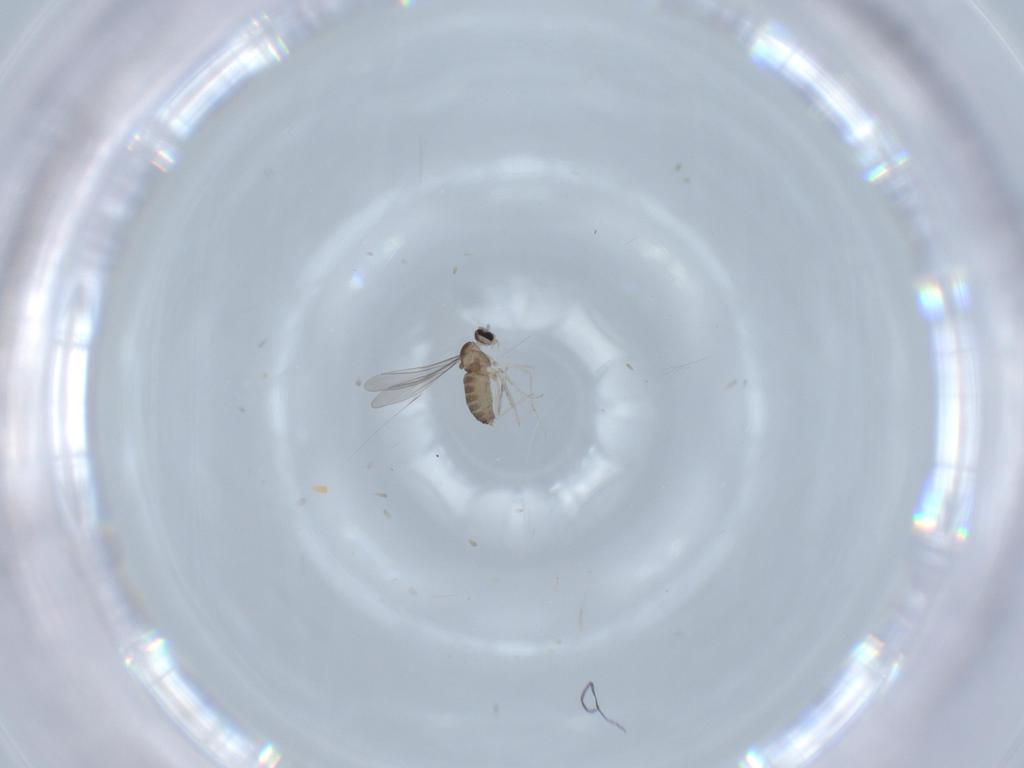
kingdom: Animalia
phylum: Arthropoda
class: Insecta
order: Diptera
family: Cecidomyiidae
